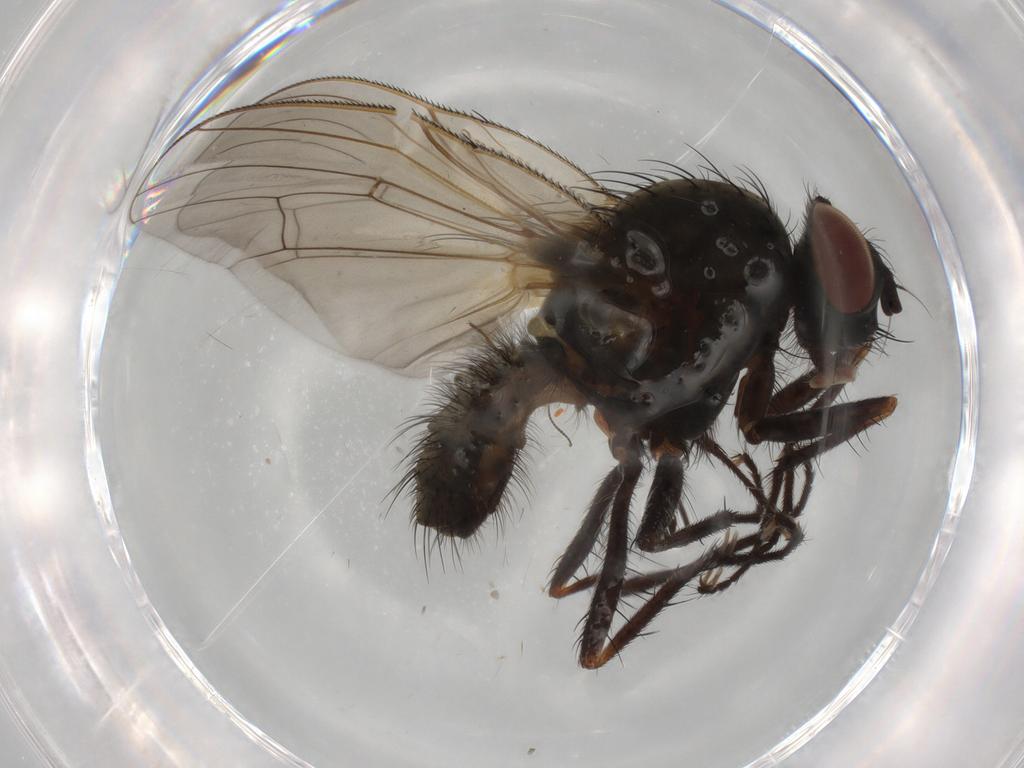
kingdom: Animalia
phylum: Arthropoda
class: Insecta
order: Diptera
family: Anthomyiidae
